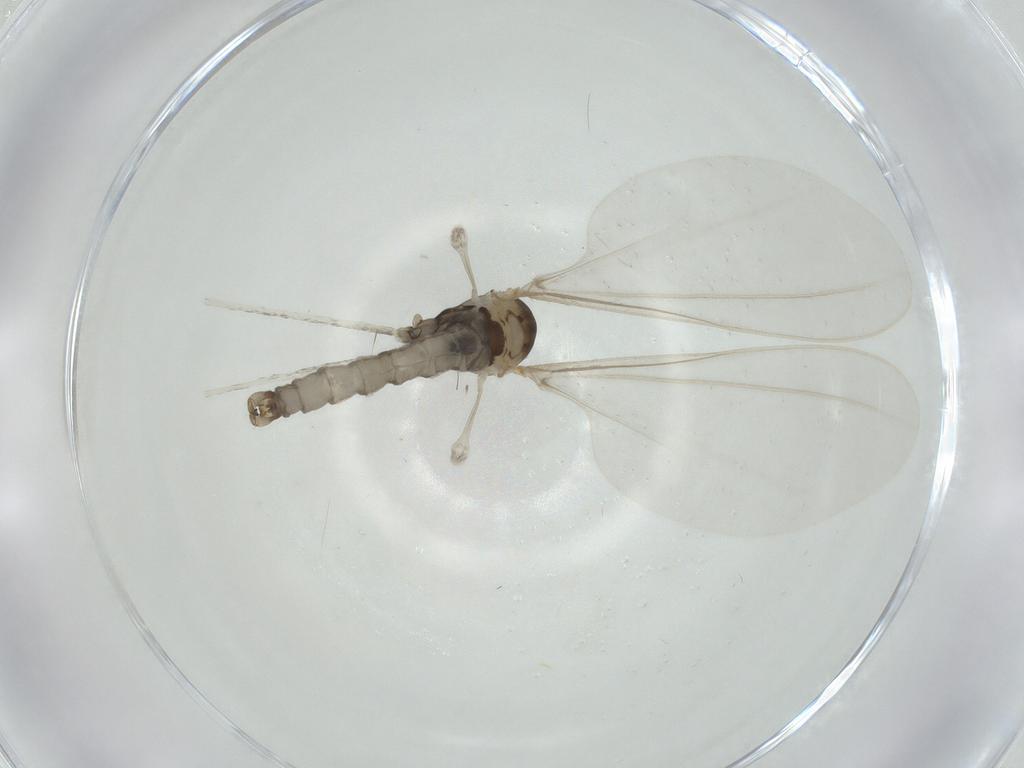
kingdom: Animalia
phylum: Arthropoda
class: Insecta
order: Diptera
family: Cecidomyiidae
